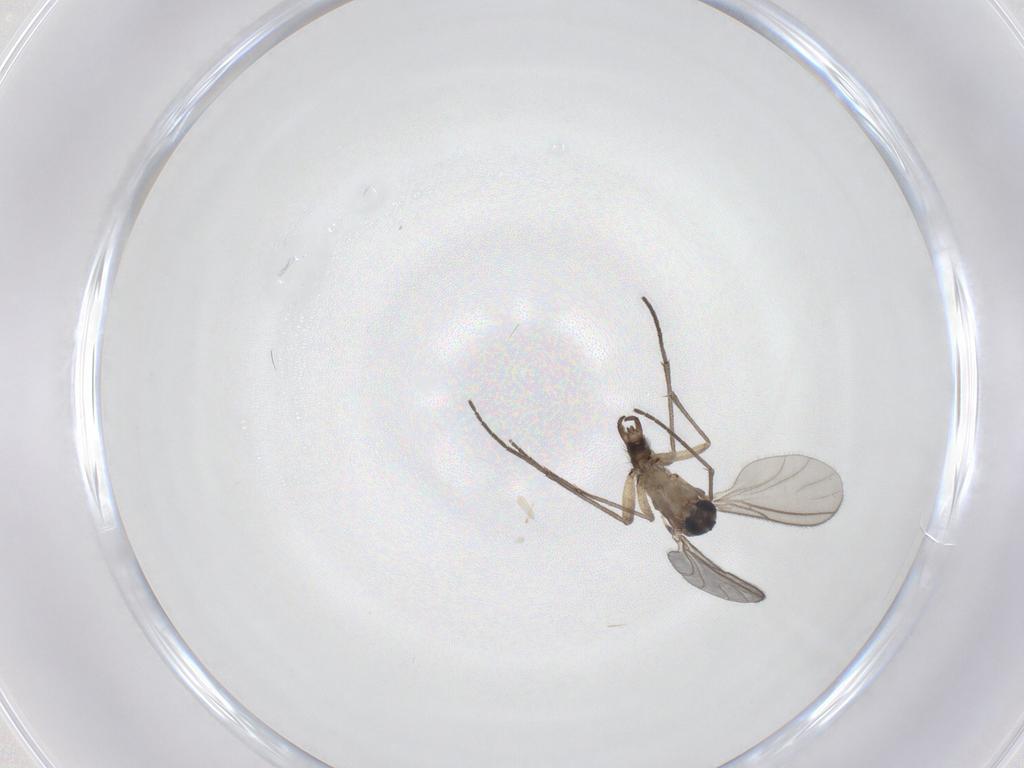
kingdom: Animalia
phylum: Arthropoda
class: Insecta
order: Diptera
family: Sciaridae
